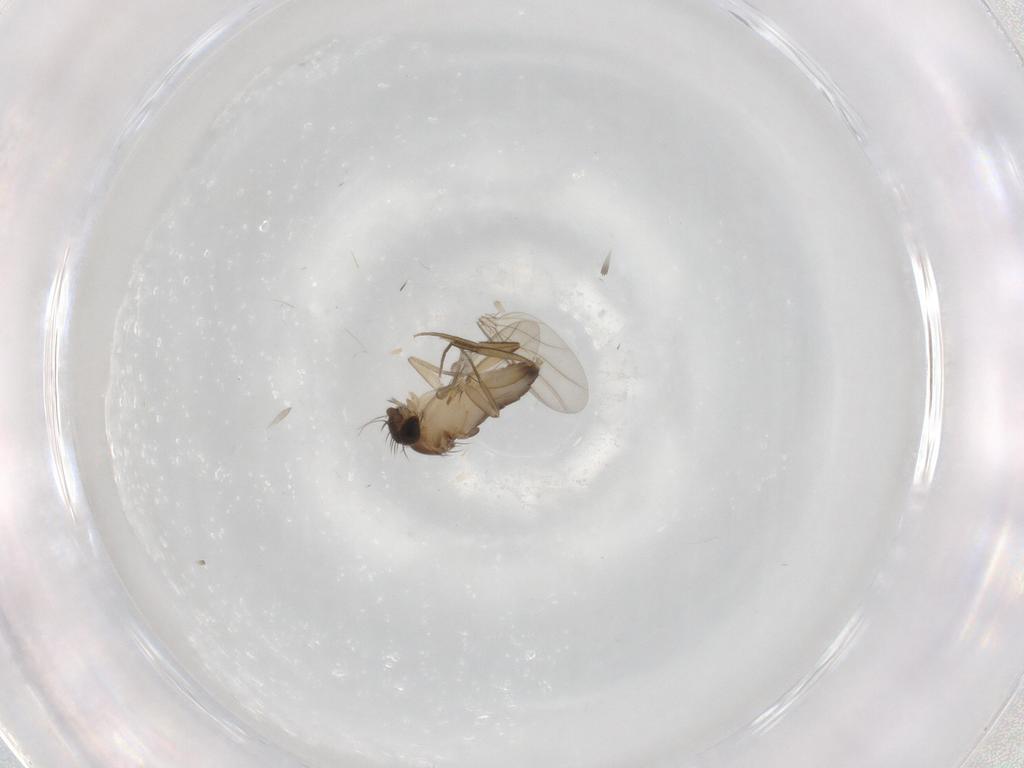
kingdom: Animalia
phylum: Arthropoda
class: Insecta
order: Diptera
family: Phoridae
